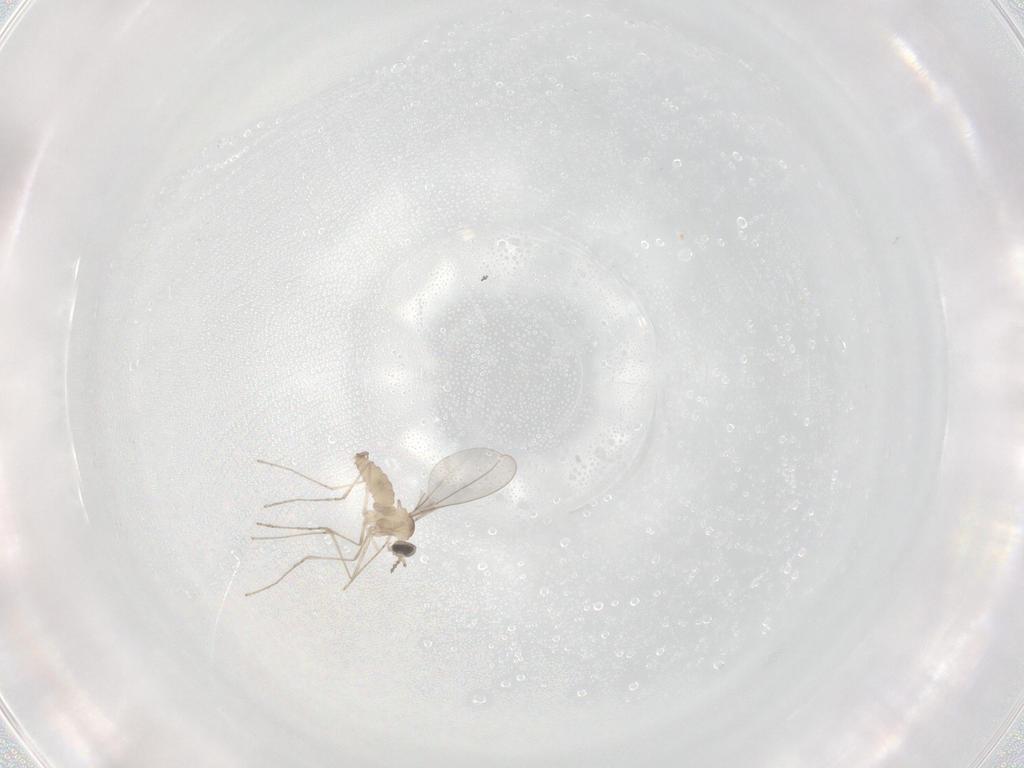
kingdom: Animalia
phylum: Arthropoda
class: Insecta
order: Diptera
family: Cecidomyiidae
